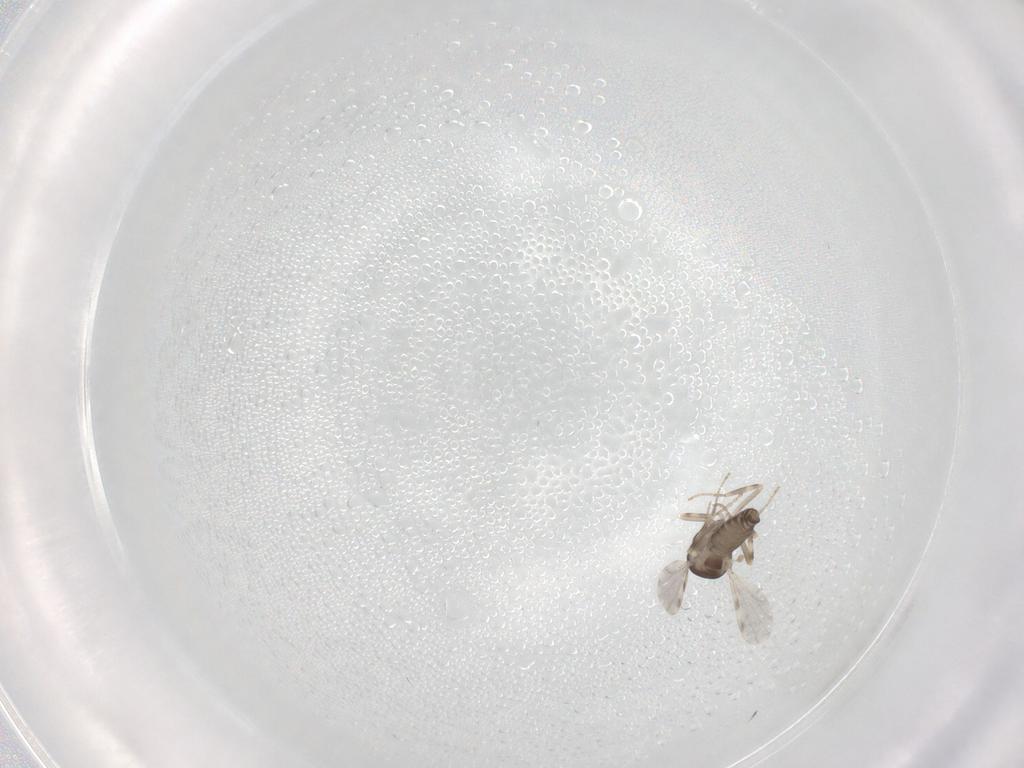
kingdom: Animalia
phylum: Arthropoda
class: Insecta
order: Diptera
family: Ceratopogonidae
